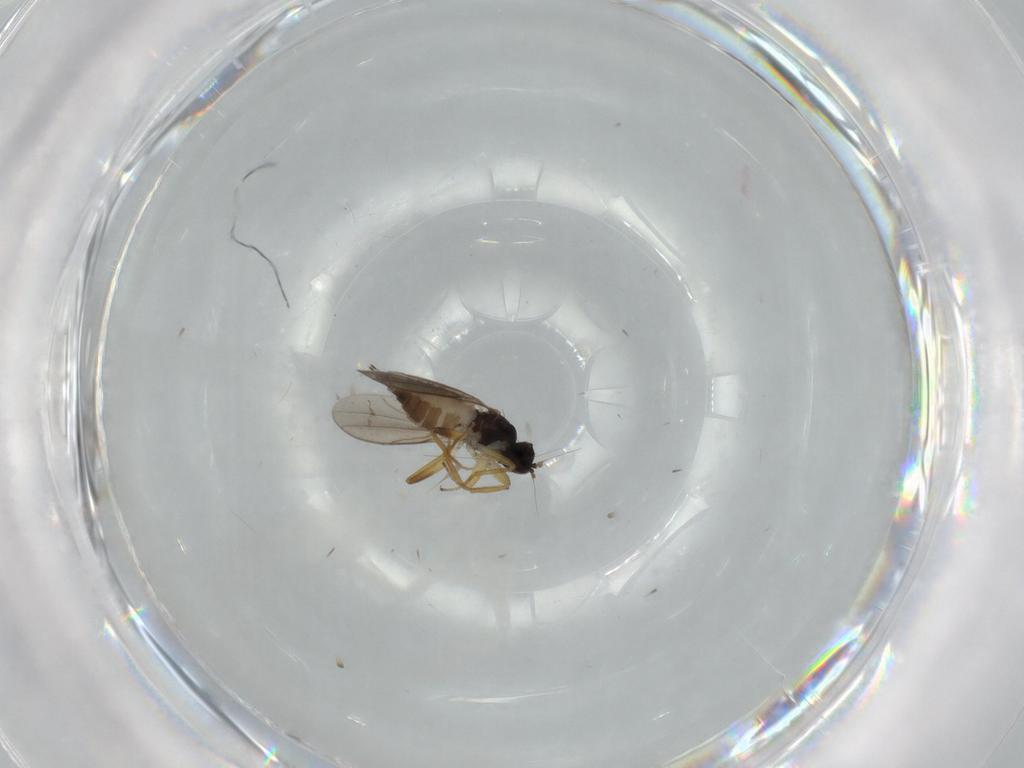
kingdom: Animalia
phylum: Arthropoda
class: Insecta
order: Diptera
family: Hybotidae
